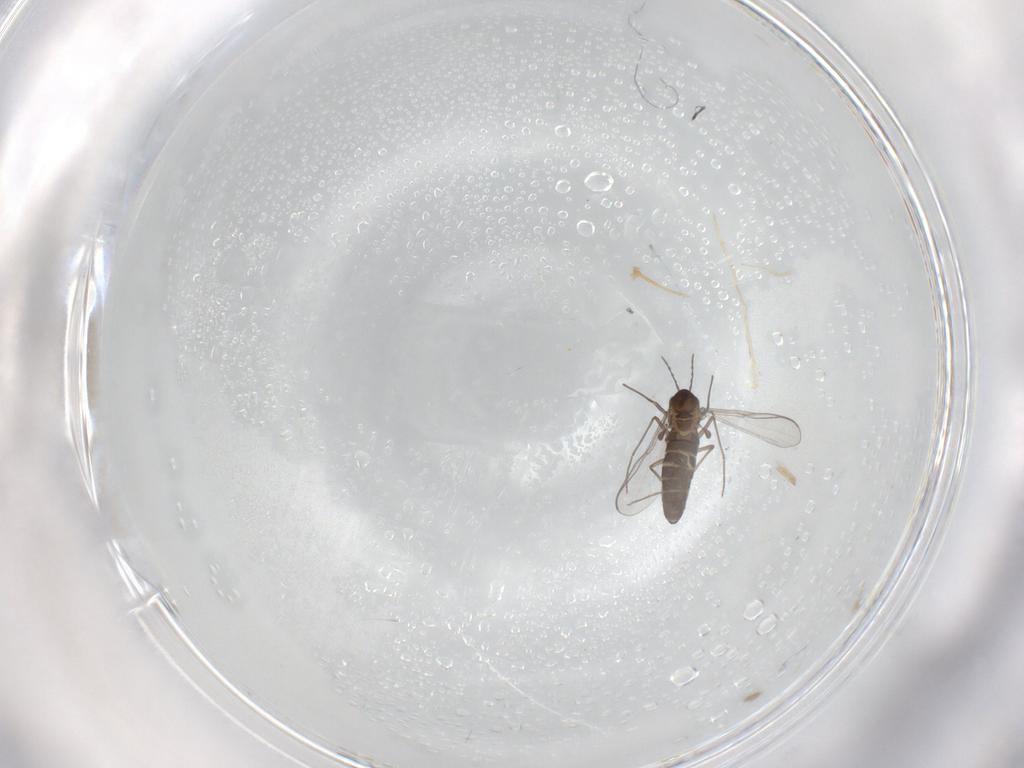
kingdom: Animalia
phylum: Arthropoda
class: Insecta
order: Diptera
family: Chironomidae
